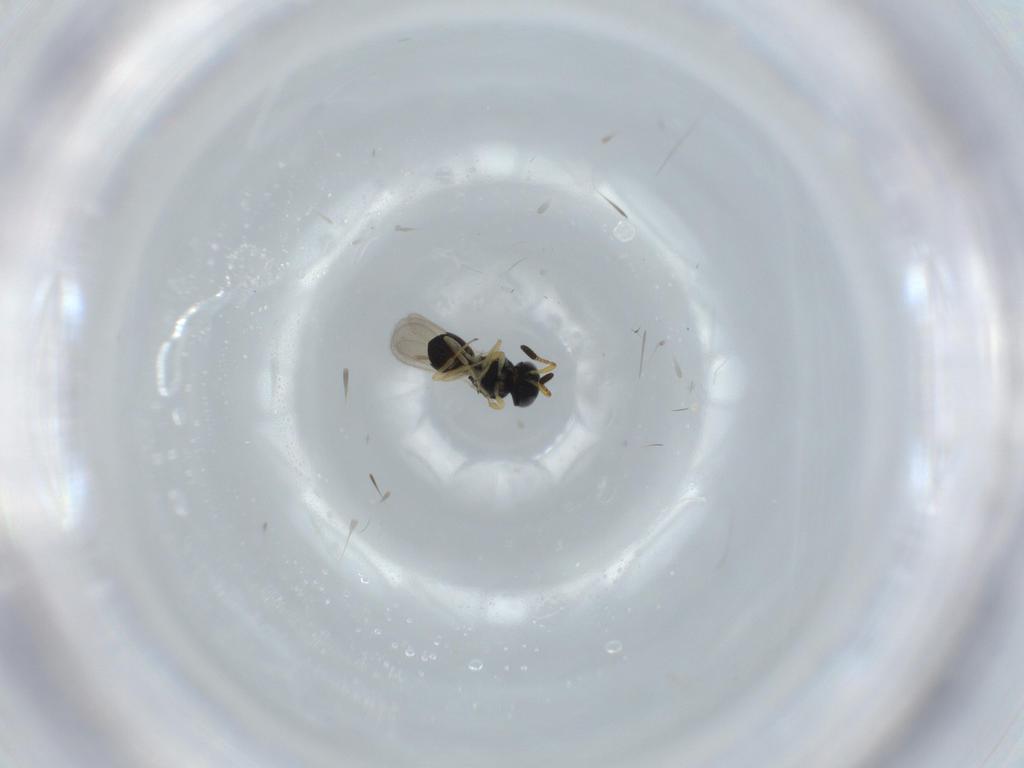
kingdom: Animalia
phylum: Arthropoda
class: Insecta
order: Hymenoptera
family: Scelionidae
